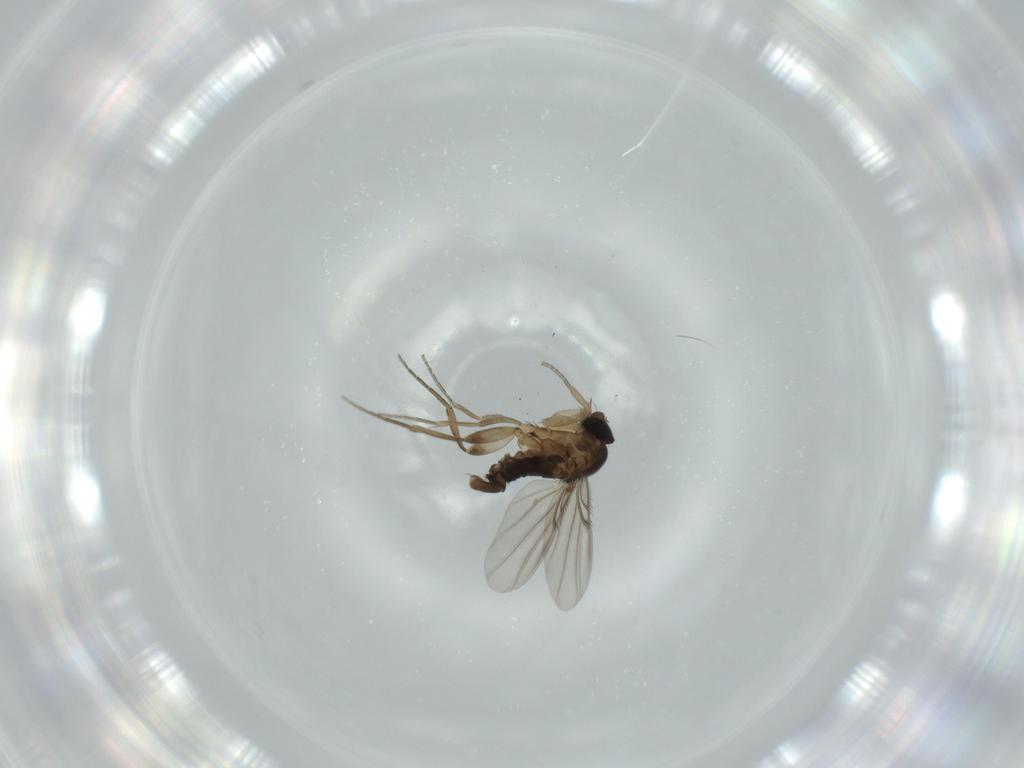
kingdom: Animalia
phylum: Arthropoda
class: Insecta
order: Diptera
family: Phoridae
